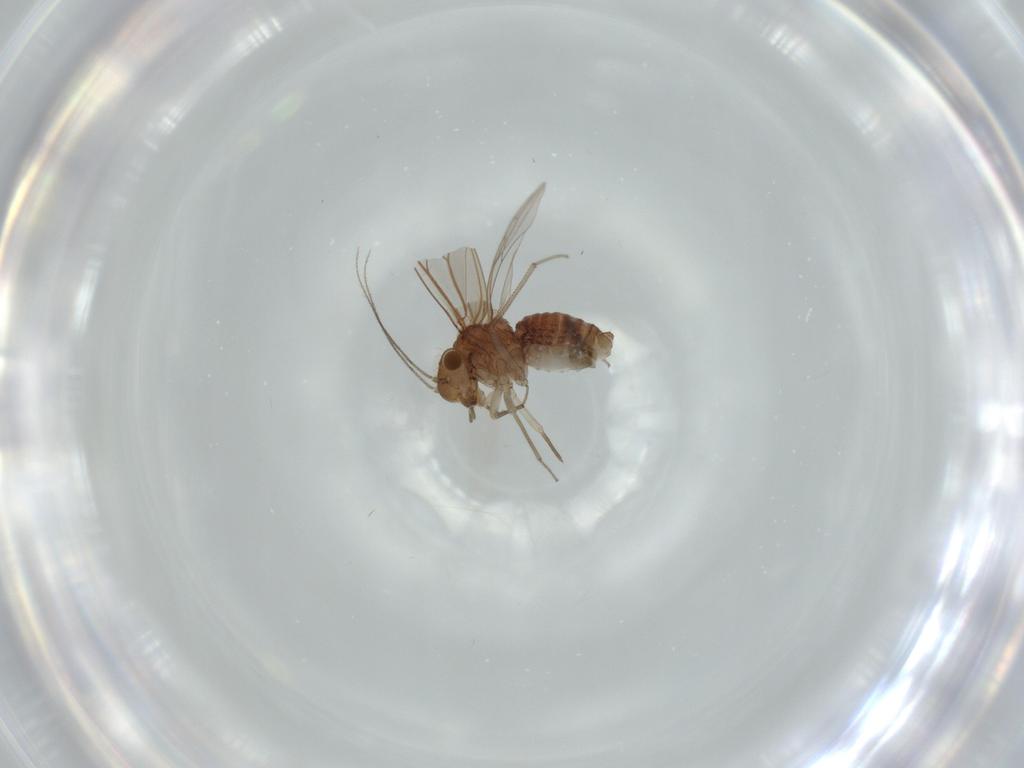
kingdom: Animalia
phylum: Arthropoda
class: Insecta
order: Psocodea
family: Lachesillidae
